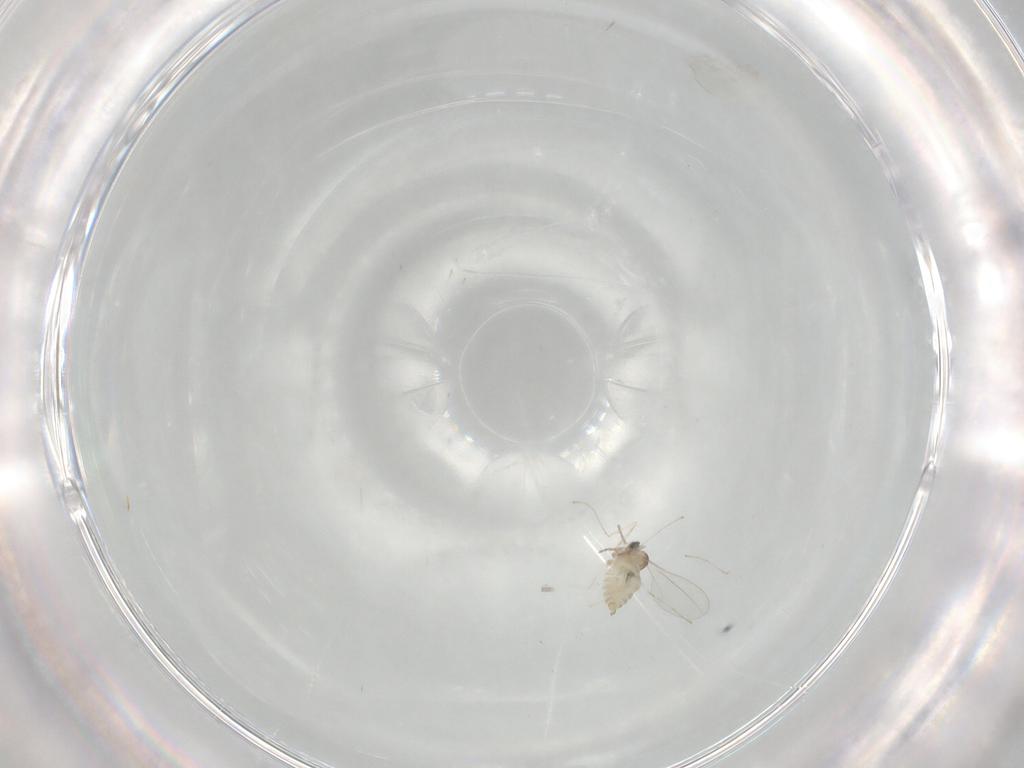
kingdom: Animalia
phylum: Arthropoda
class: Insecta
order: Diptera
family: Cecidomyiidae
